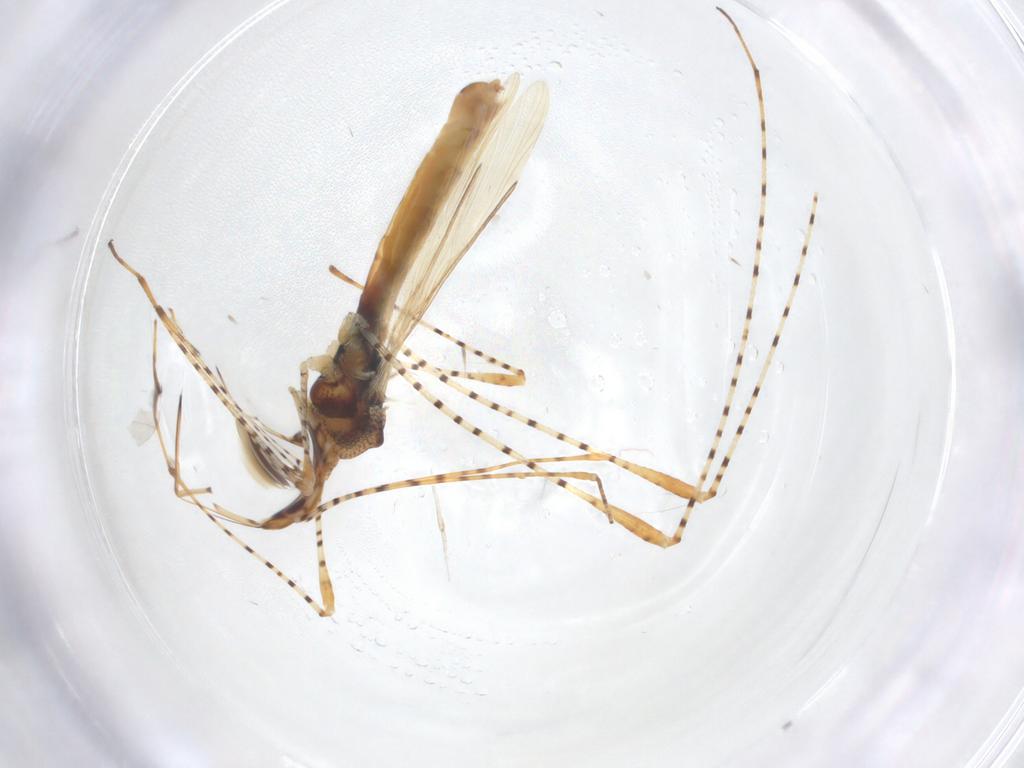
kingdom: Animalia
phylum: Arthropoda
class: Insecta
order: Hemiptera
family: Berytidae
